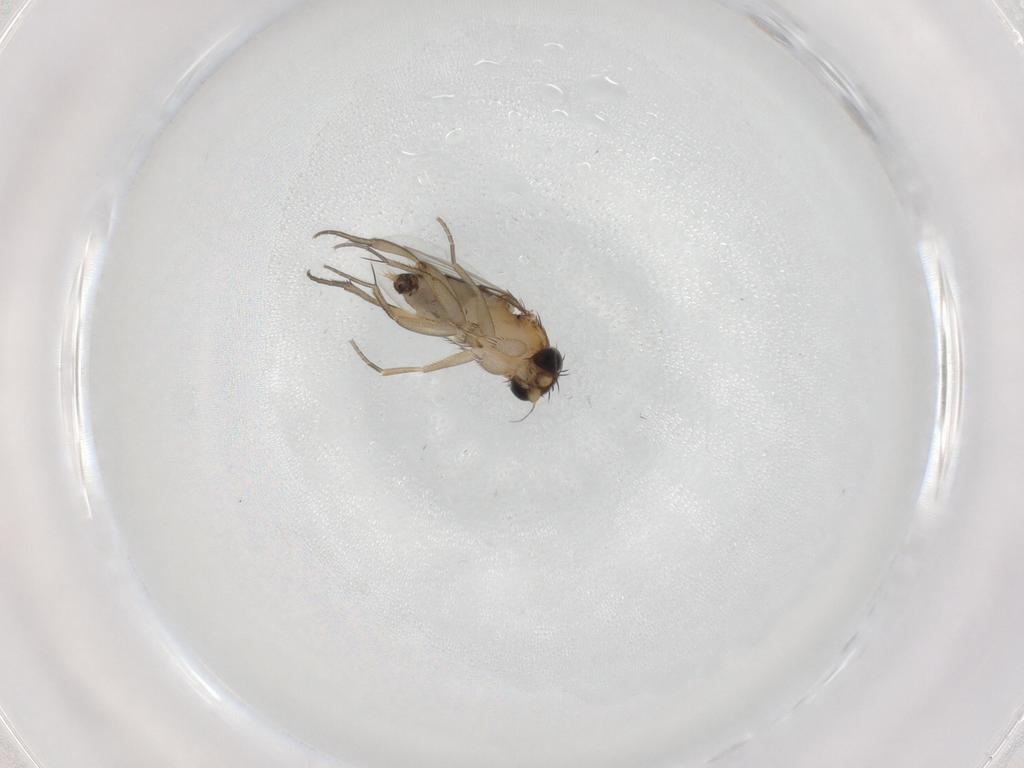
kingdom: Animalia
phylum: Arthropoda
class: Insecta
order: Diptera
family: Phoridae
